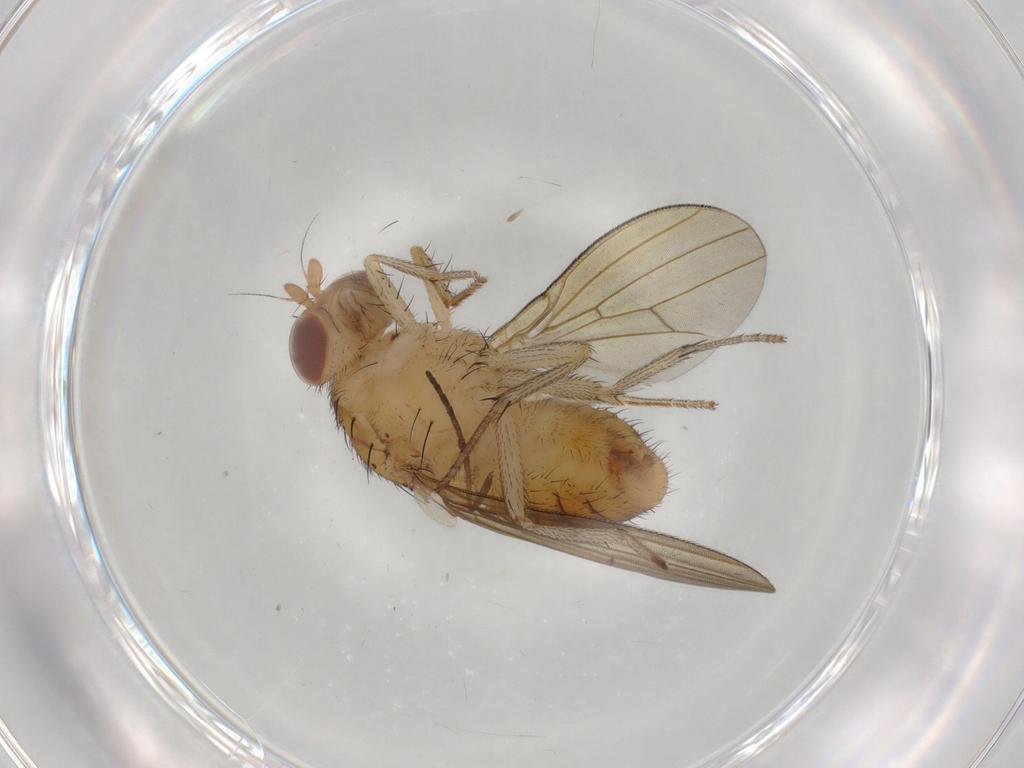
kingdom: Animalia
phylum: Arthropoda
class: Insecta
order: Diptera
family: Psychodidae
